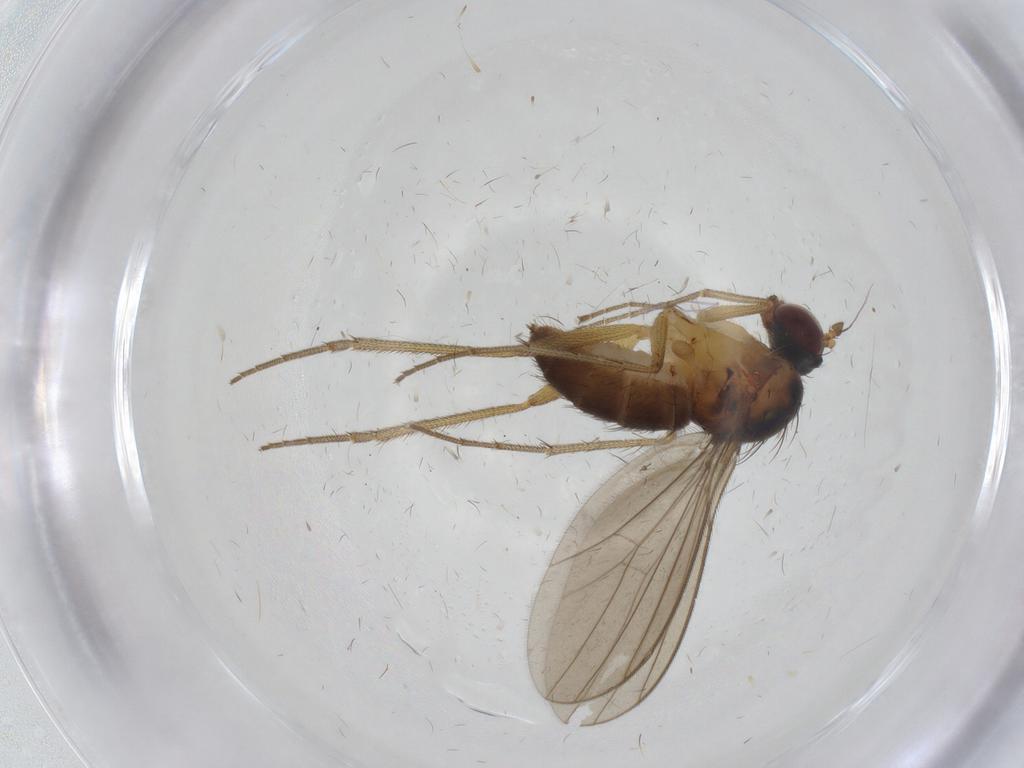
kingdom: Animalia
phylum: Arthropoda
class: Insecta
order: Diptera
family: Dolichopodidae
